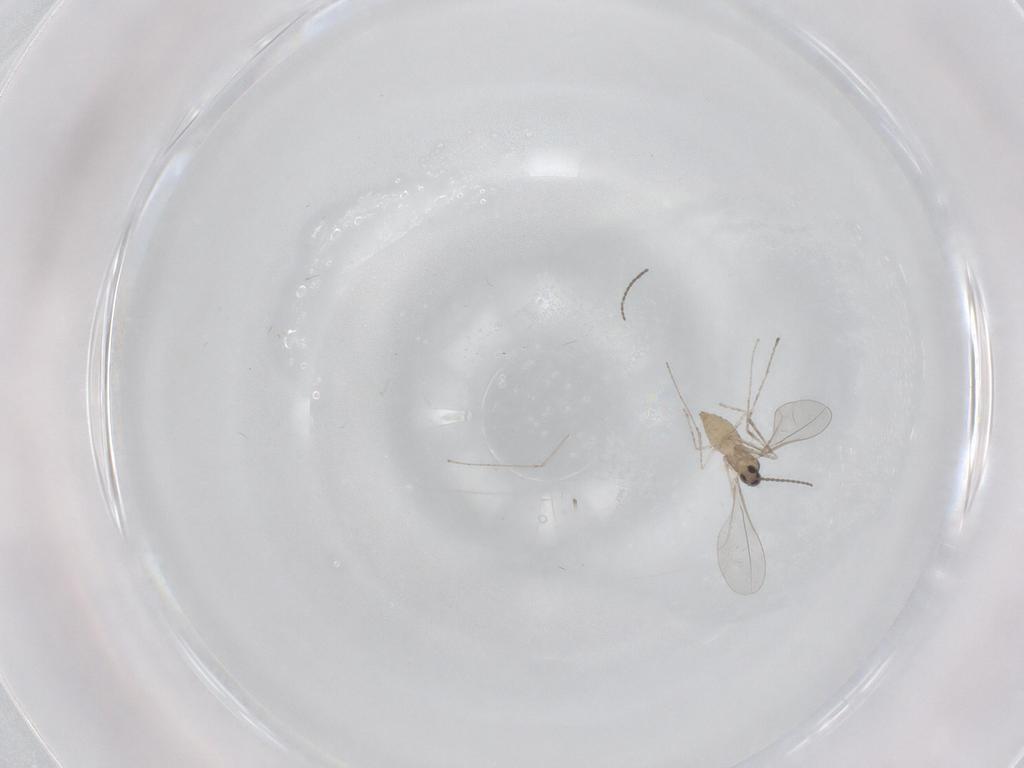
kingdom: Animalia
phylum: Arthropoda
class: Insecta
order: Diptera
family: Cecidomyiidae
